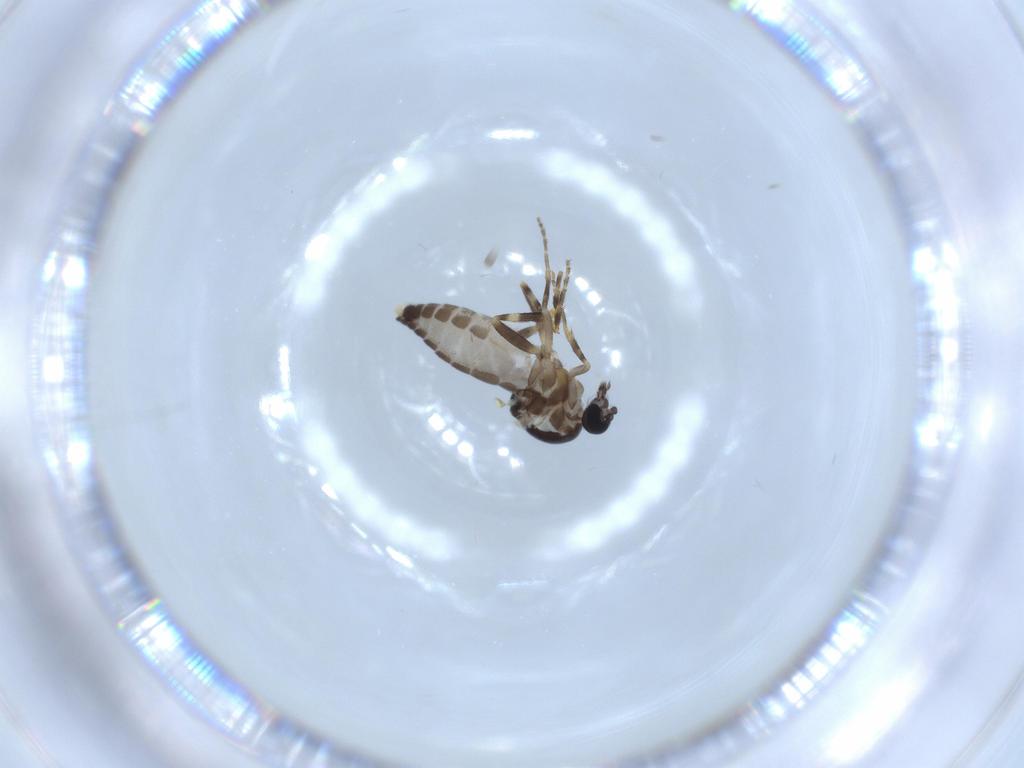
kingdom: Animalia
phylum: Arthropoda
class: Insecta
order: Diptera
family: Ceratopogonidae
